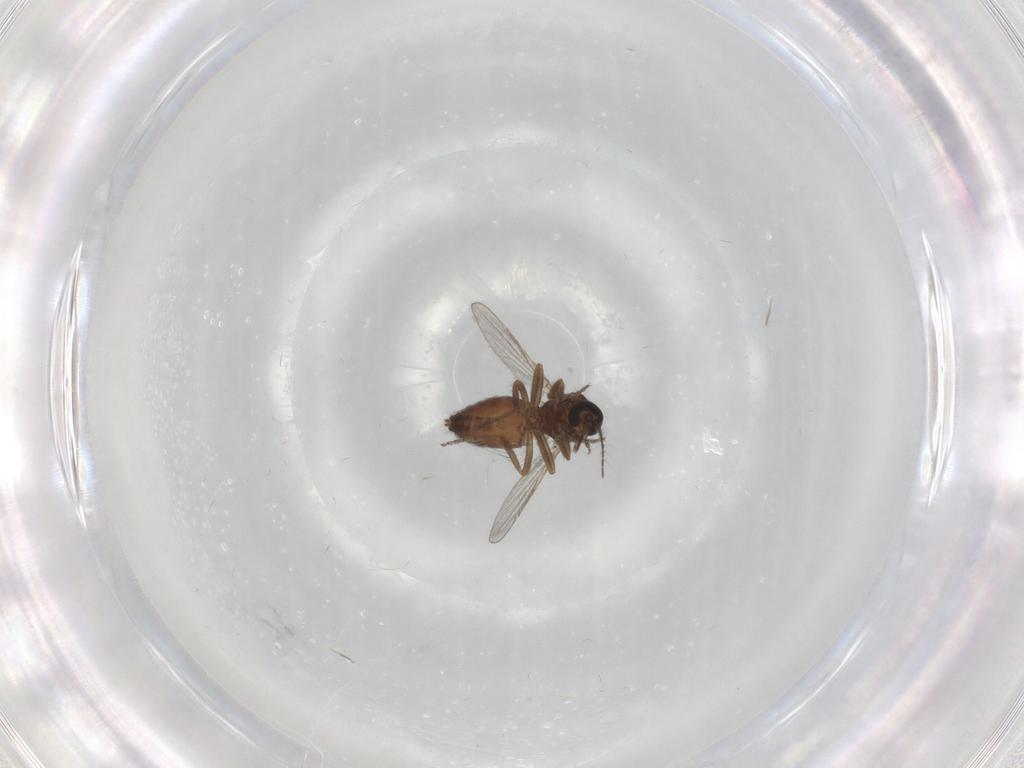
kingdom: Animalia
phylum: Arthropoda
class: Insecta
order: Diptera
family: Ceratopogonidae
